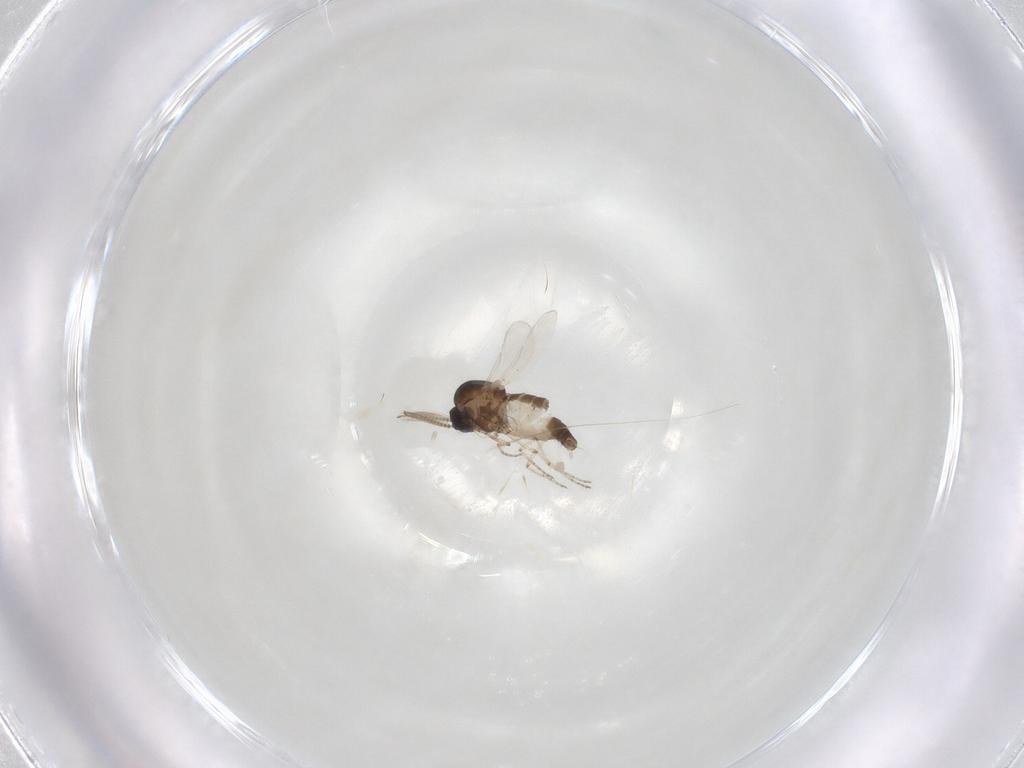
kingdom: Animalia
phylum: Arthropoda
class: Insecta
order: Diptera
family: Ceratopogonidae
